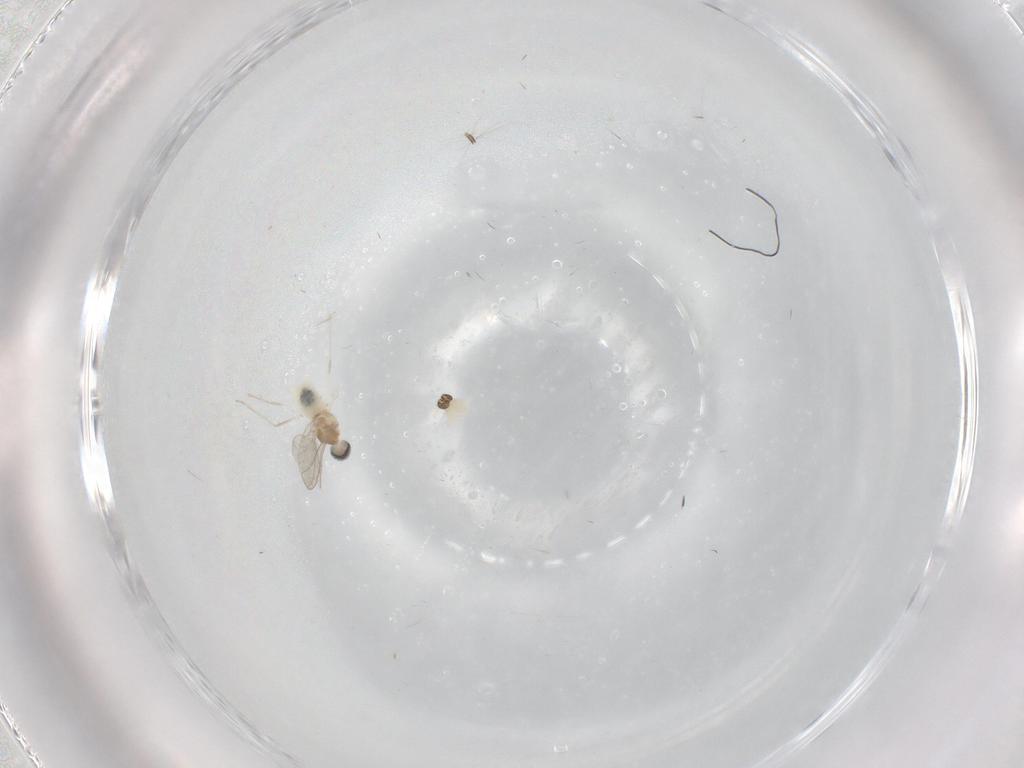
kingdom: Animalia
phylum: Arthropoda
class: Insecta
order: Diptera
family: Cecidomyiidae
